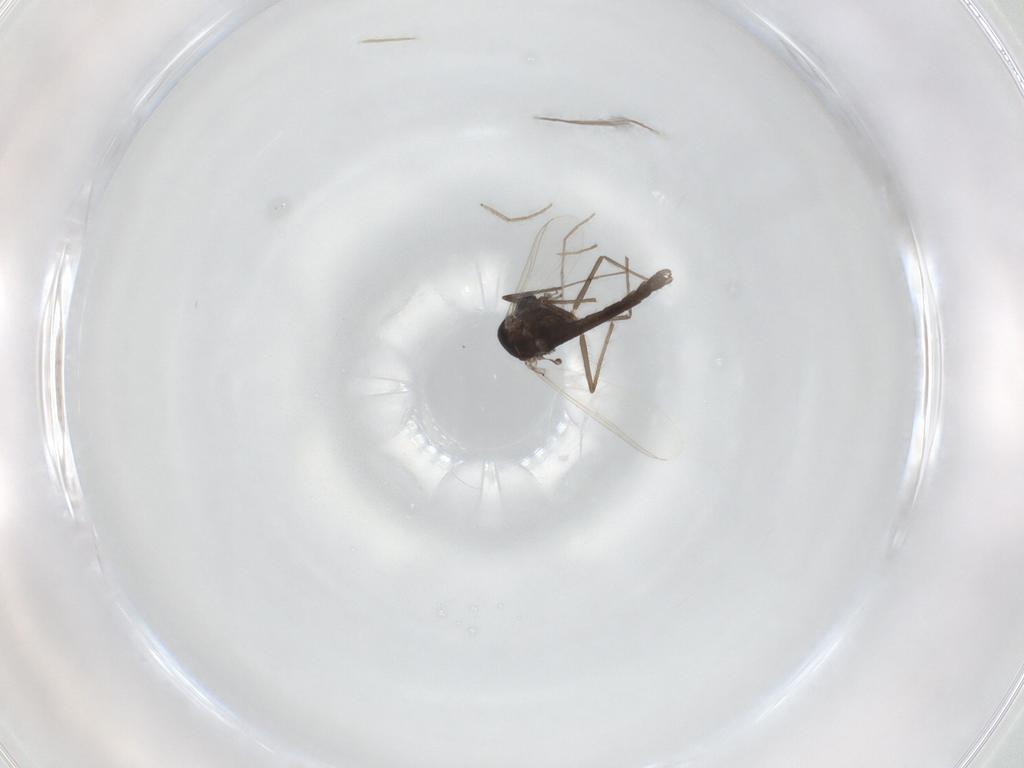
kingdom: Animalia
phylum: Arthropoda
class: Insecta
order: Diptera
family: Chironomidae
